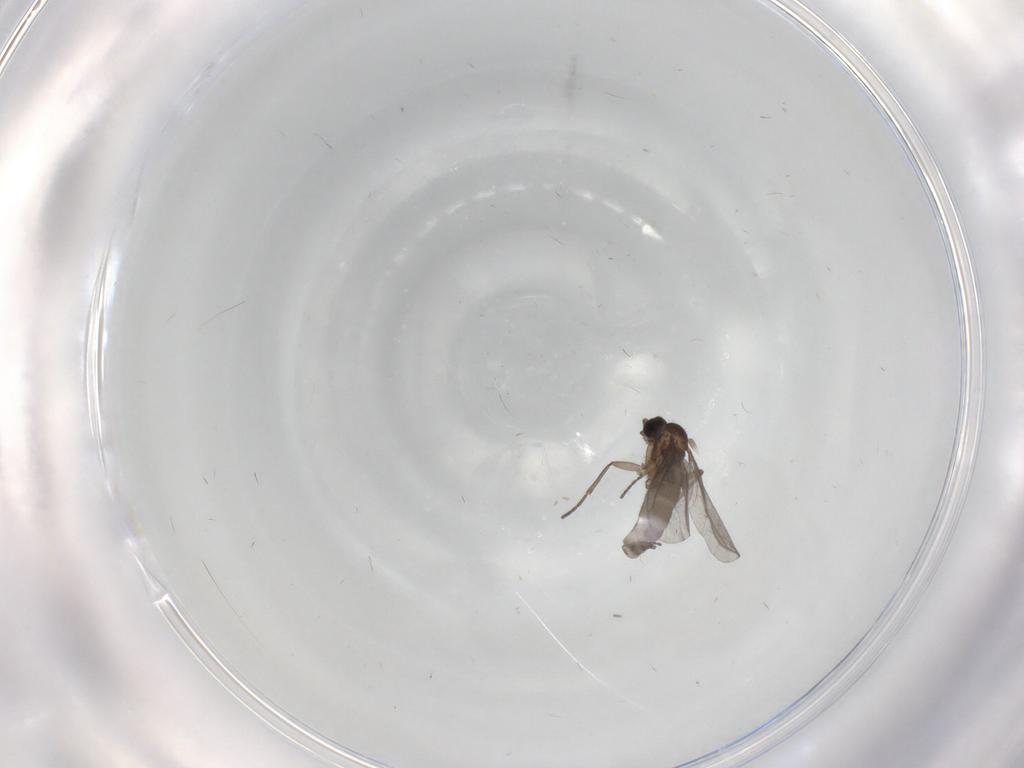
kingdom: Animalia
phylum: Arthropoda
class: Insecta
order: Diptera
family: Sciaridae
